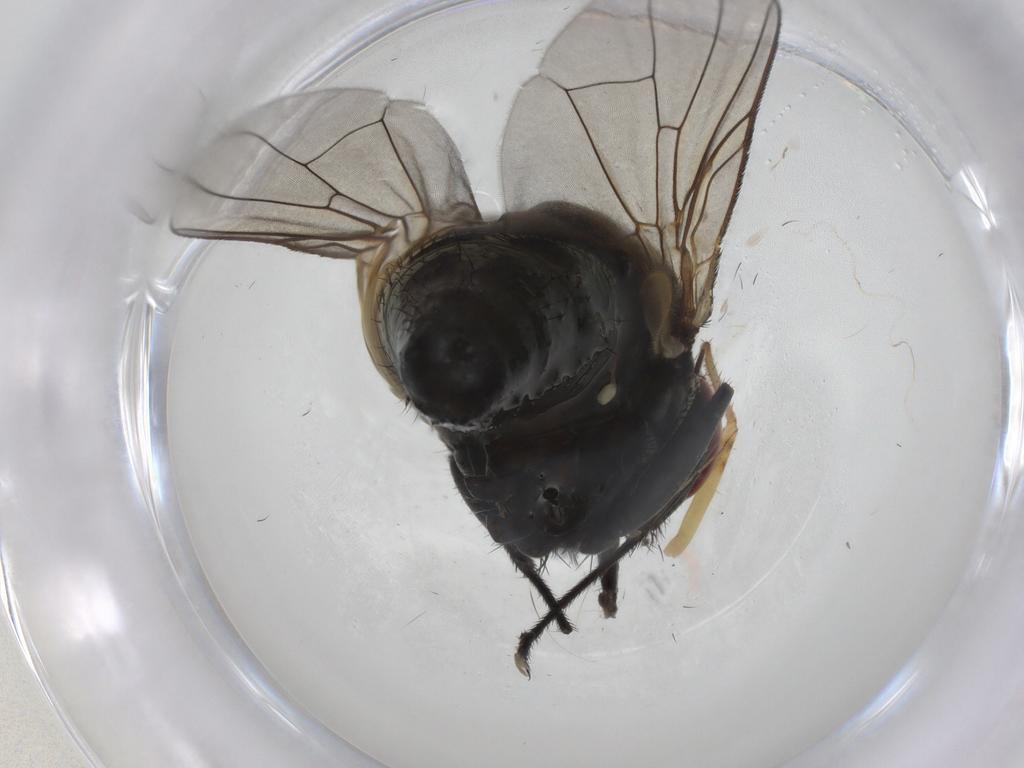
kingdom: Animalia
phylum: Arthropoda
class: Insecta
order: Diptera
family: Muscidae
